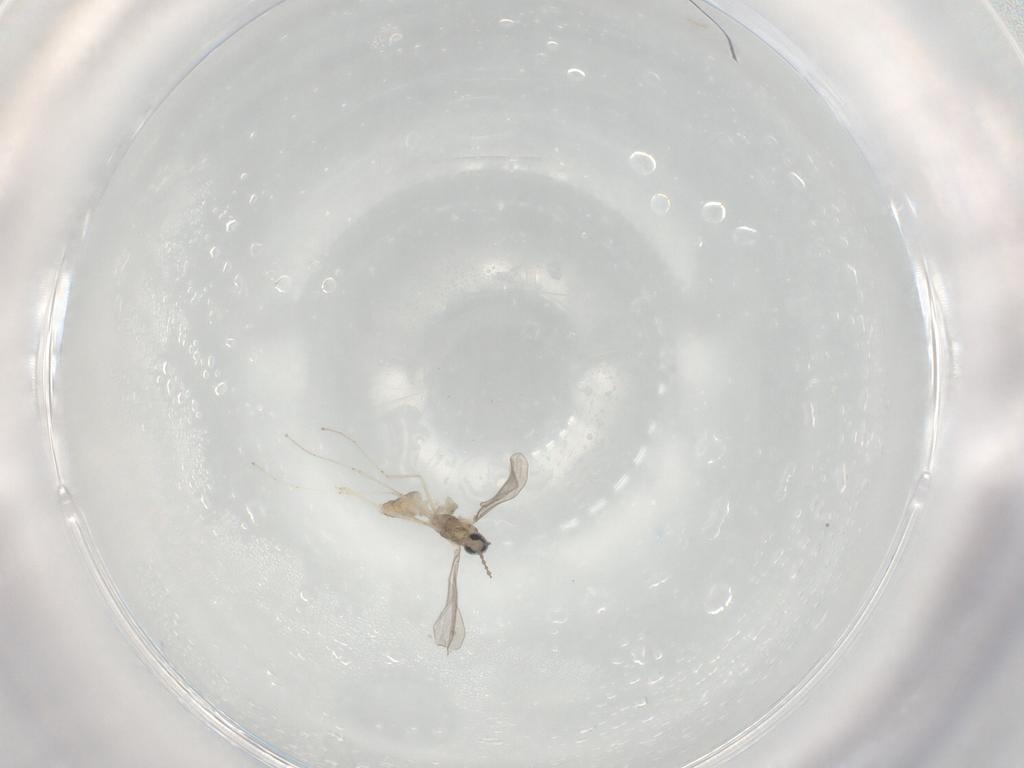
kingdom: Animalia
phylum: Arthropoda
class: Insecta
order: Diptera
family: Cecidomyiidae
